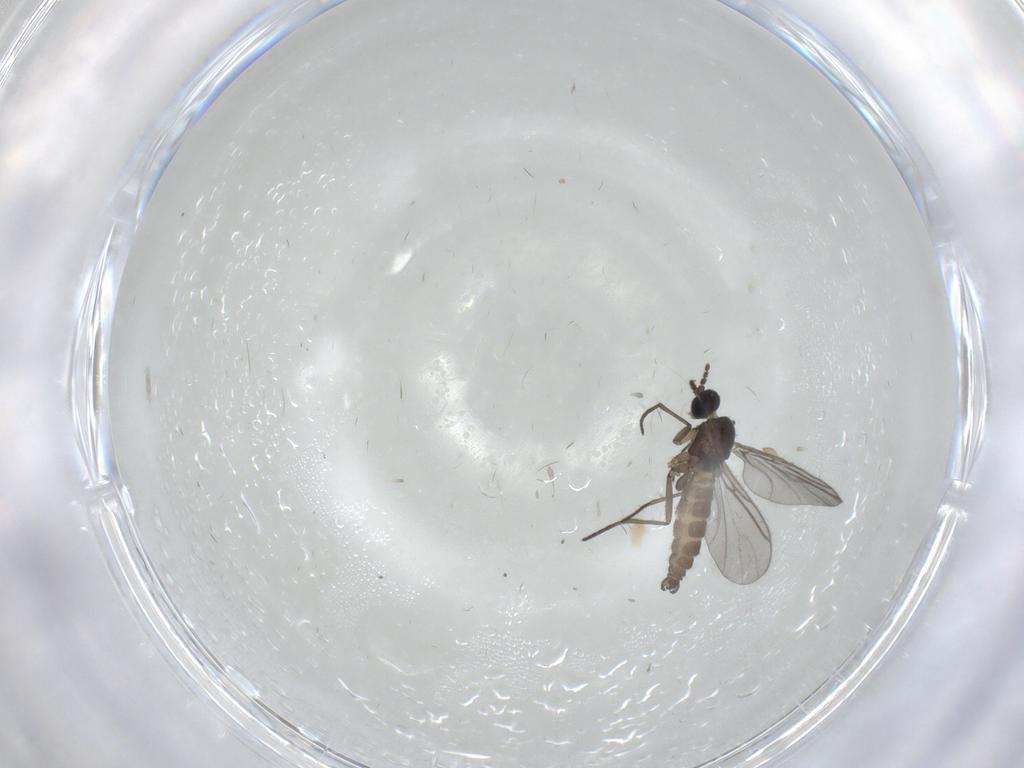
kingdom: Animalia
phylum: Arthropoda
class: Insecta
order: Diptera
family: Cecidomyiidae
